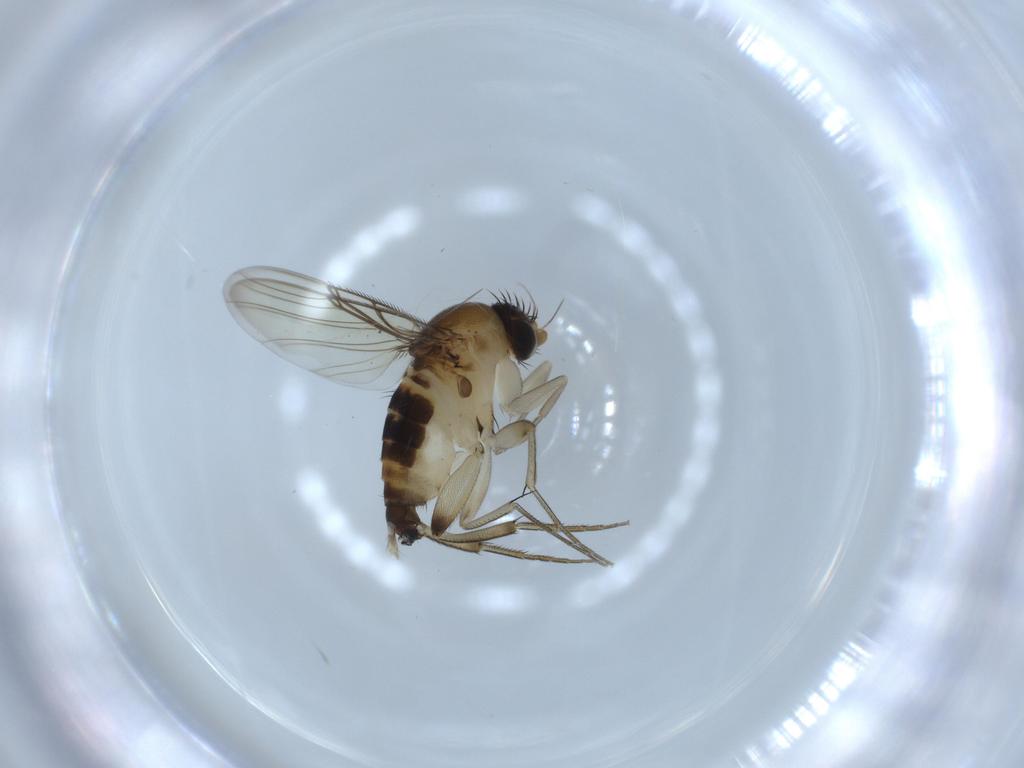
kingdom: Animalia
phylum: Arthropoda
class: Insecta
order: Diptera
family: Phoridae
